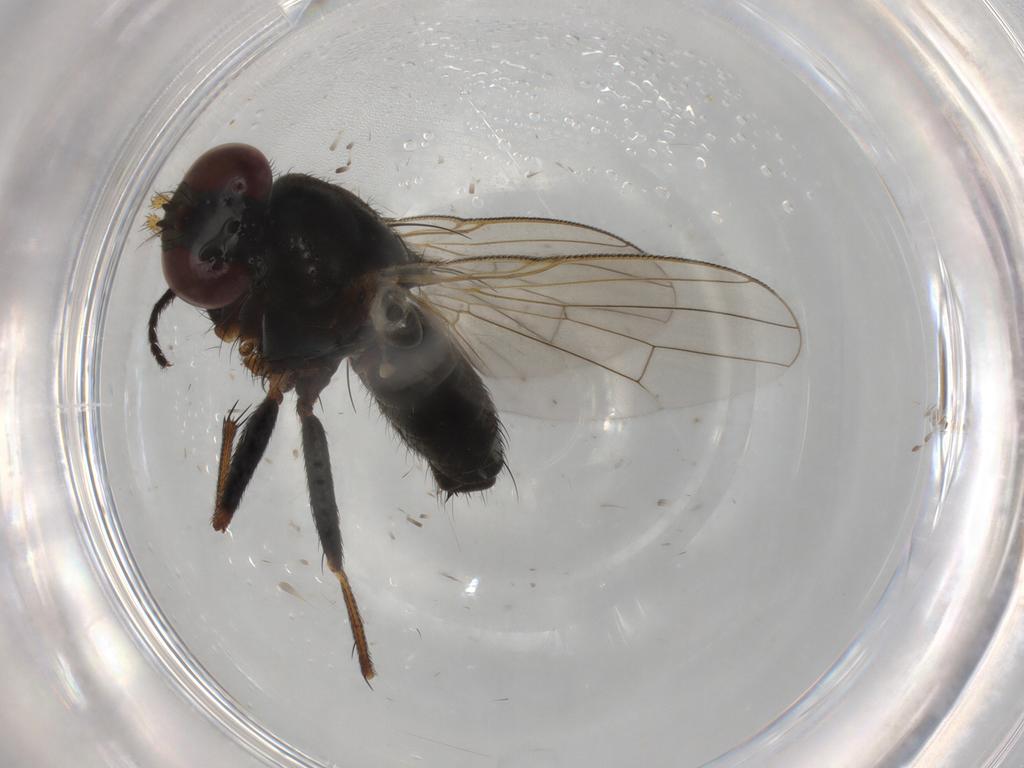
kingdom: Animalia
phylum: Arthropoda
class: Insecta
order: Diptera
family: Muscidae
